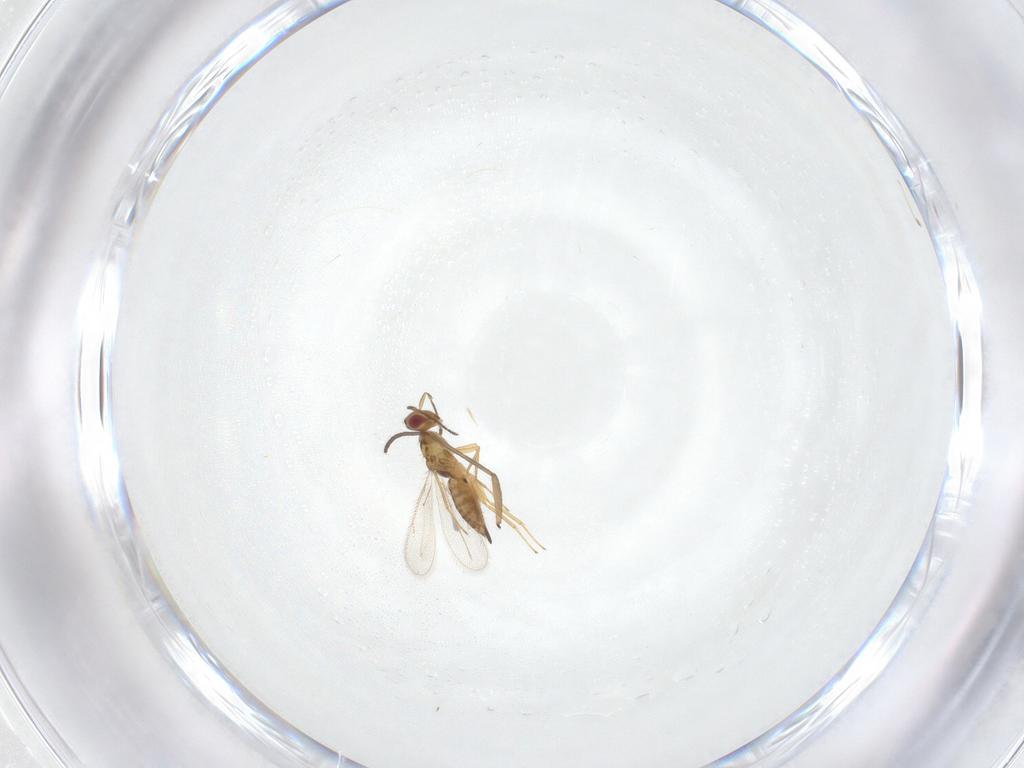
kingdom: Animalia
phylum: Arthropoda
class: Insecta
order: Hymenoptera
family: Eulophidae
